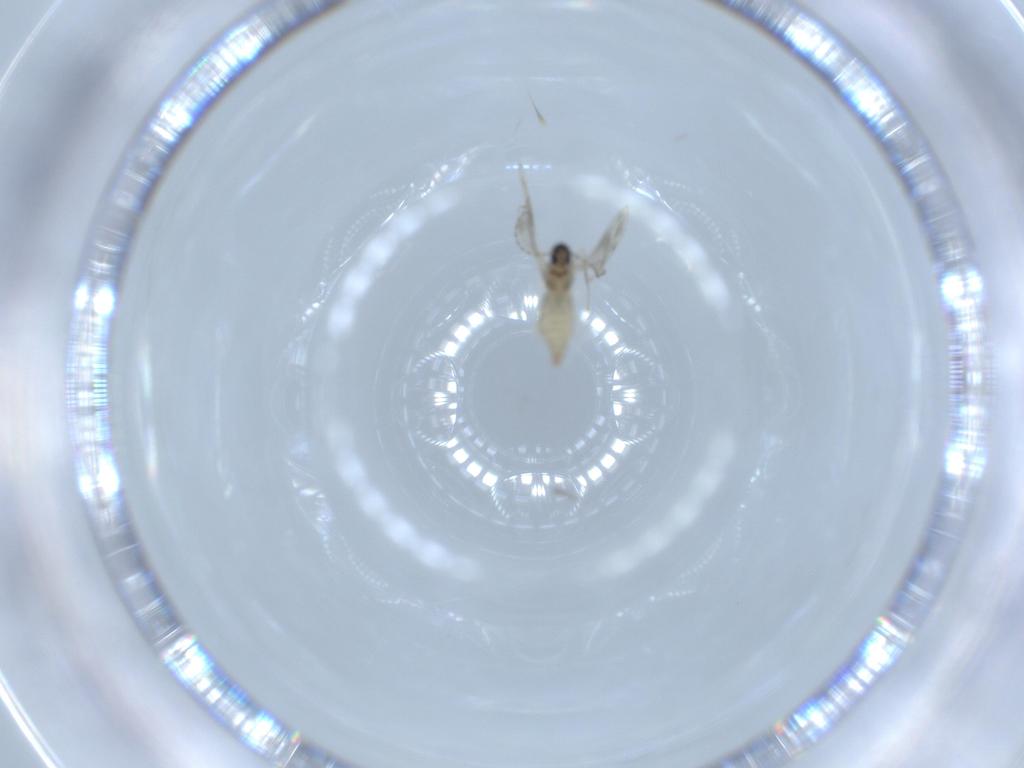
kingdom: Animalia
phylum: Arthropoda
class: Insecta
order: Diptera
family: Cecidomyiidae
